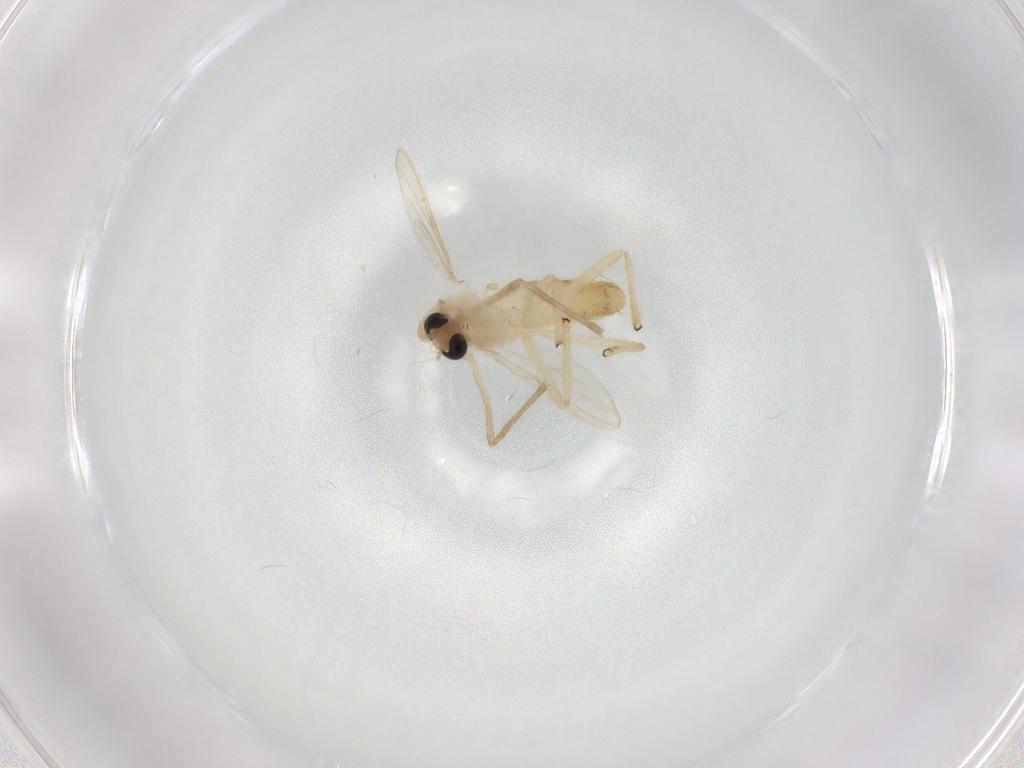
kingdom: Animalia
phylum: Arthropoda
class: Insecta
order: Diptera
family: Chironomidae
